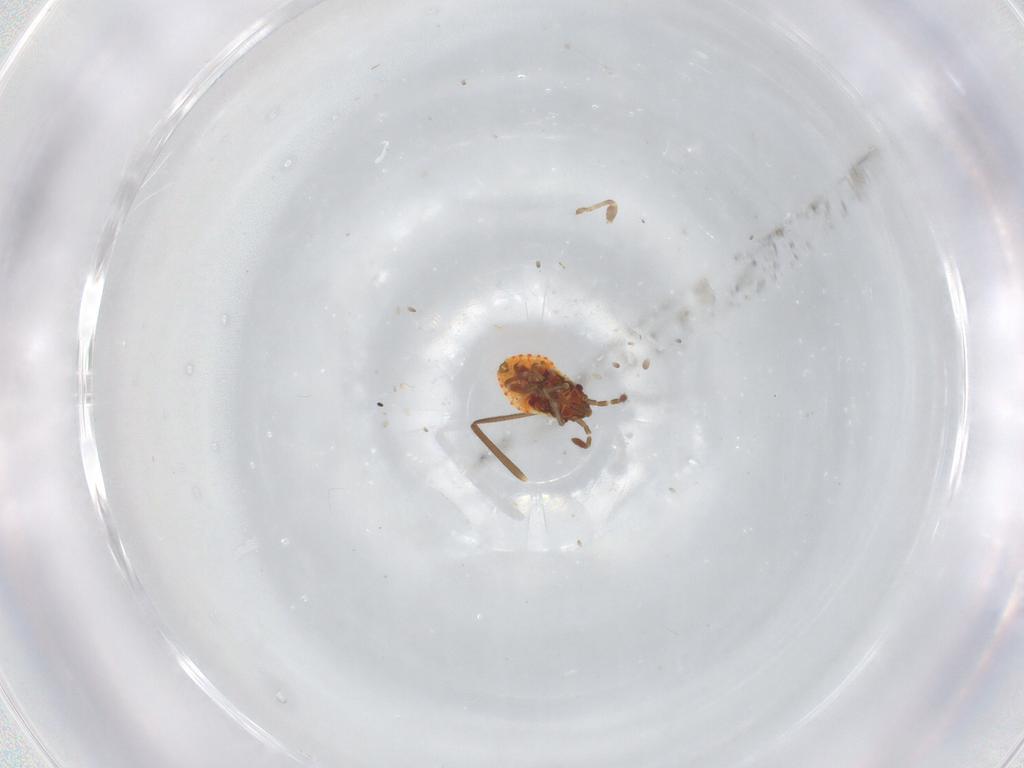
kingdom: Animalia
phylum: Arthropoda
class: Insecta
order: Hemiptera
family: Lygaeidae
